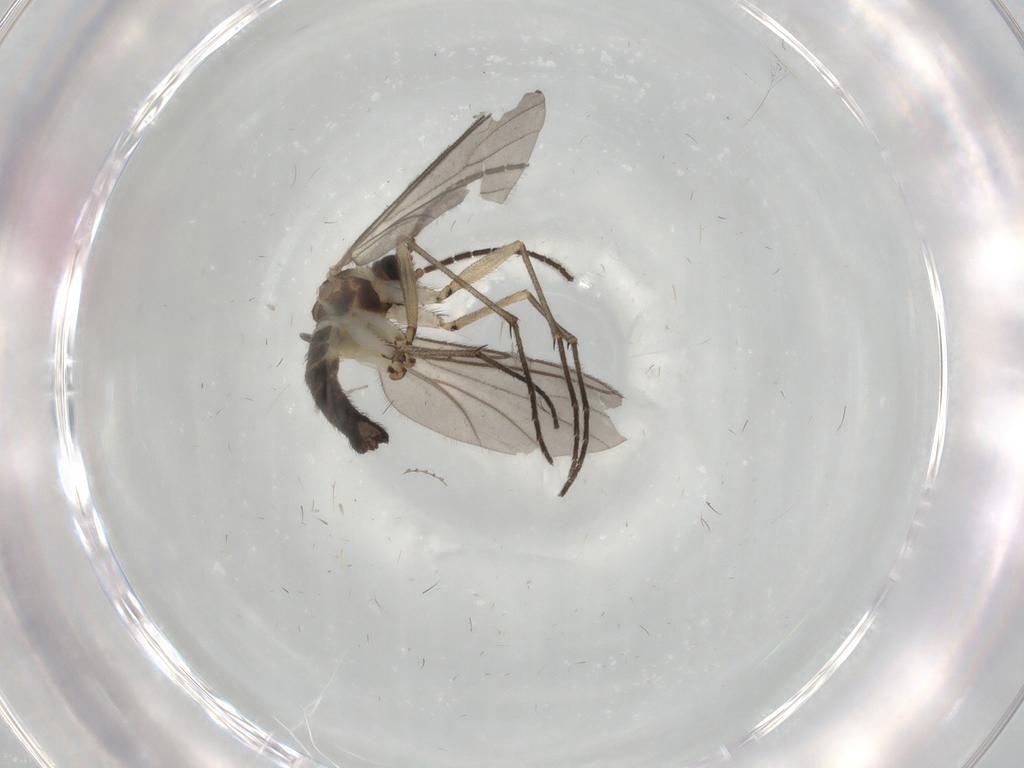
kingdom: Animalia
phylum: Arthropoda
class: Insecta
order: Diptera
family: Sciaridae
